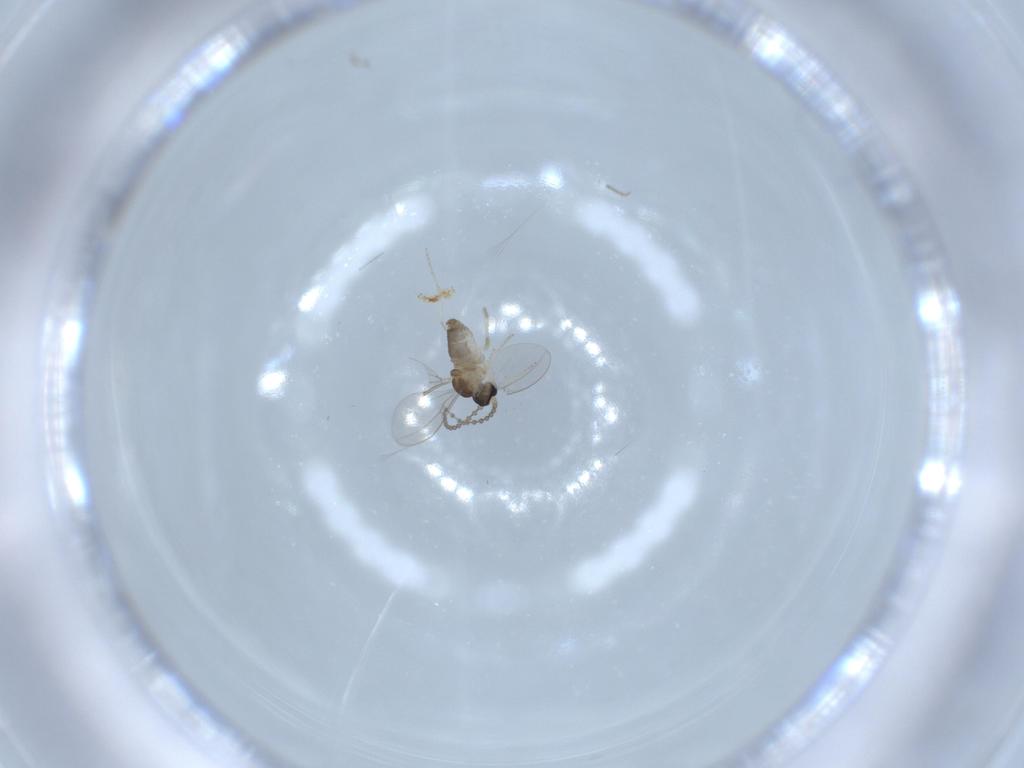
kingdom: Animalia
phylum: Arthropoda
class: Insecta
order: Diptera
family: Cecidomyiidae
